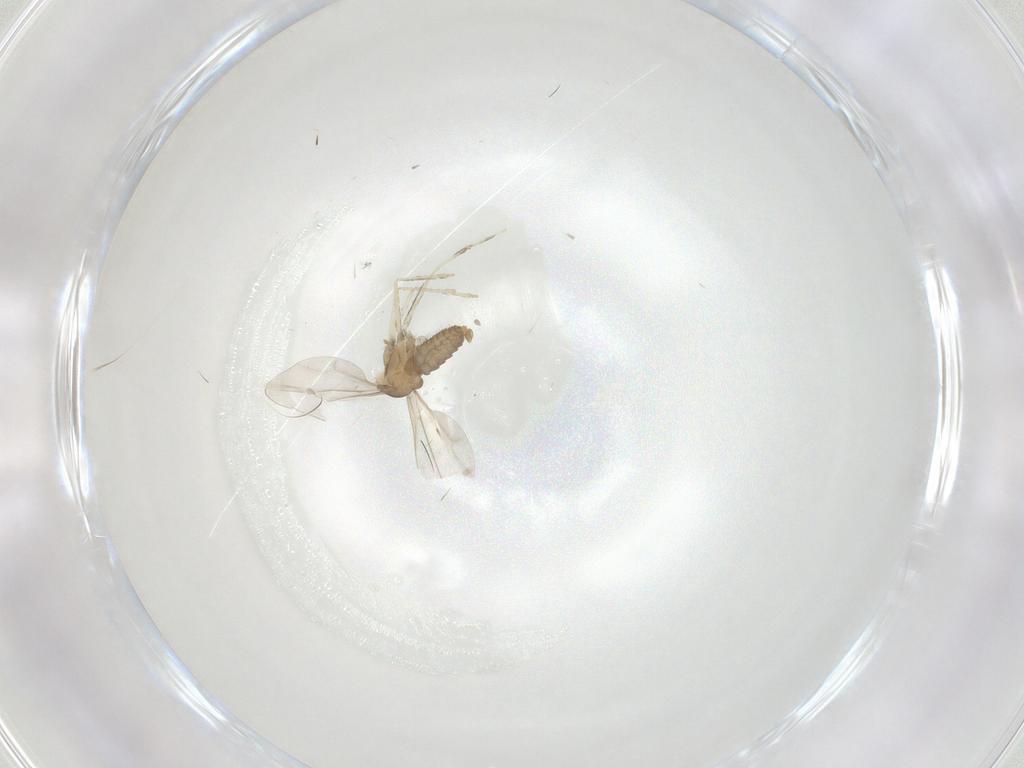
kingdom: Animalia
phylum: Arthropoda
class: Insecta
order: Diptera
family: Cecidomyiidae
